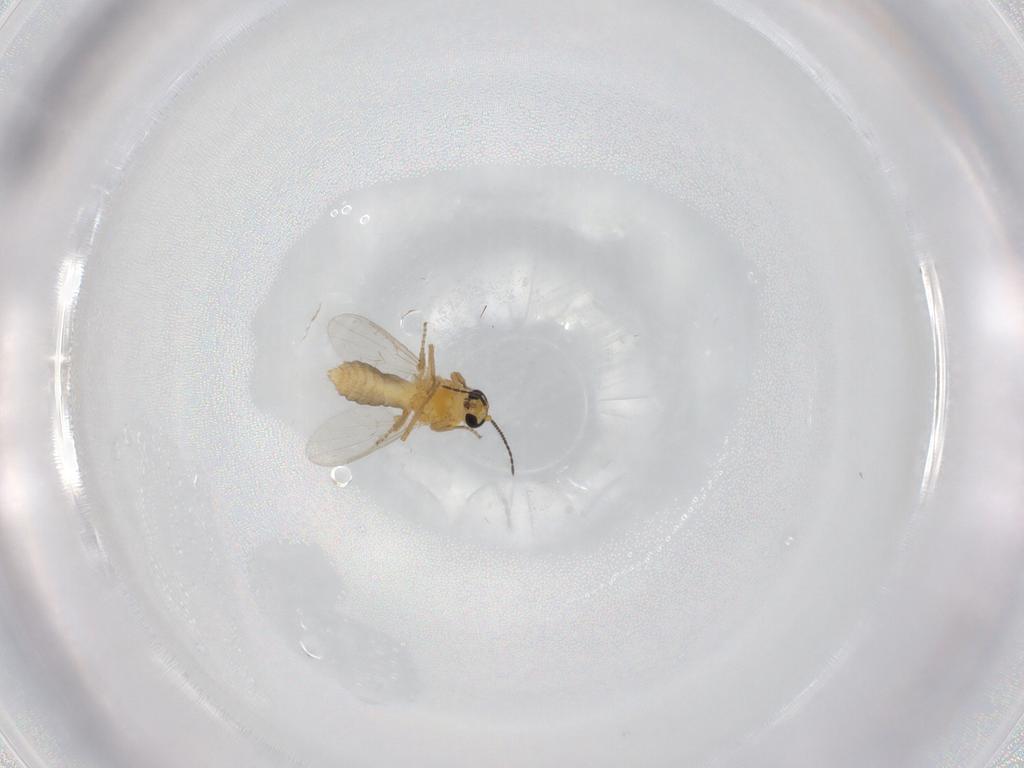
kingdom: Animalia
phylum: Arthropoda
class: Insecta
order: Diptera
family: Ceratopogonidae
